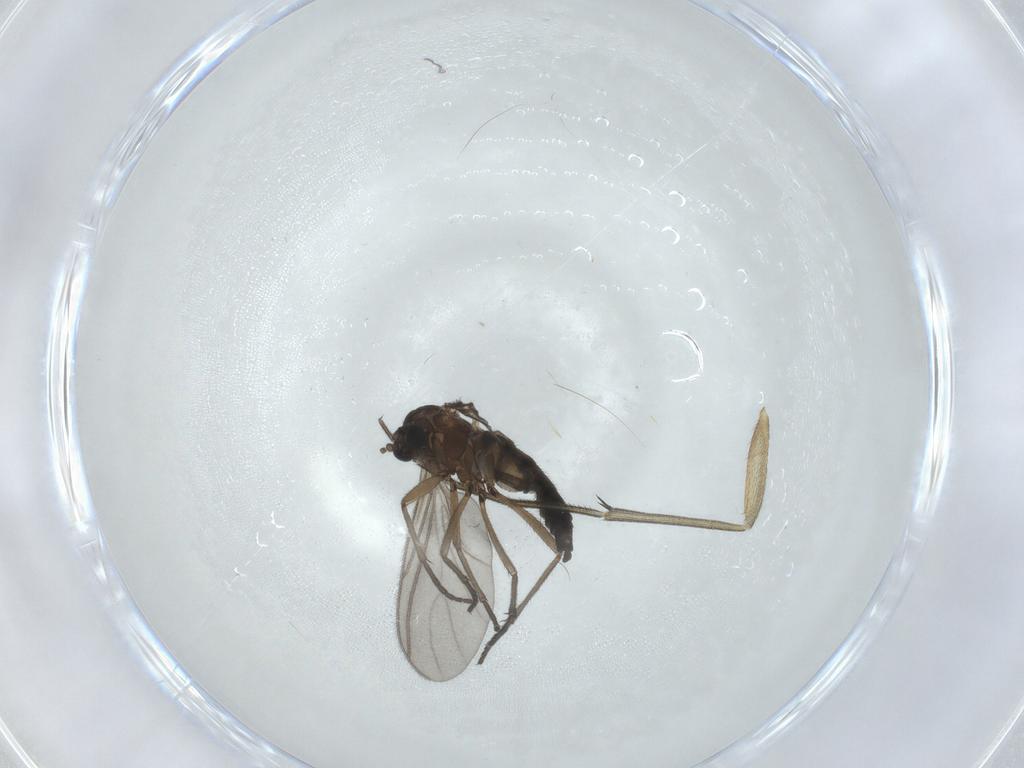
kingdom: Animalia
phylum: Arthropoda
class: Insecta
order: Diptera
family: Sciaridae
